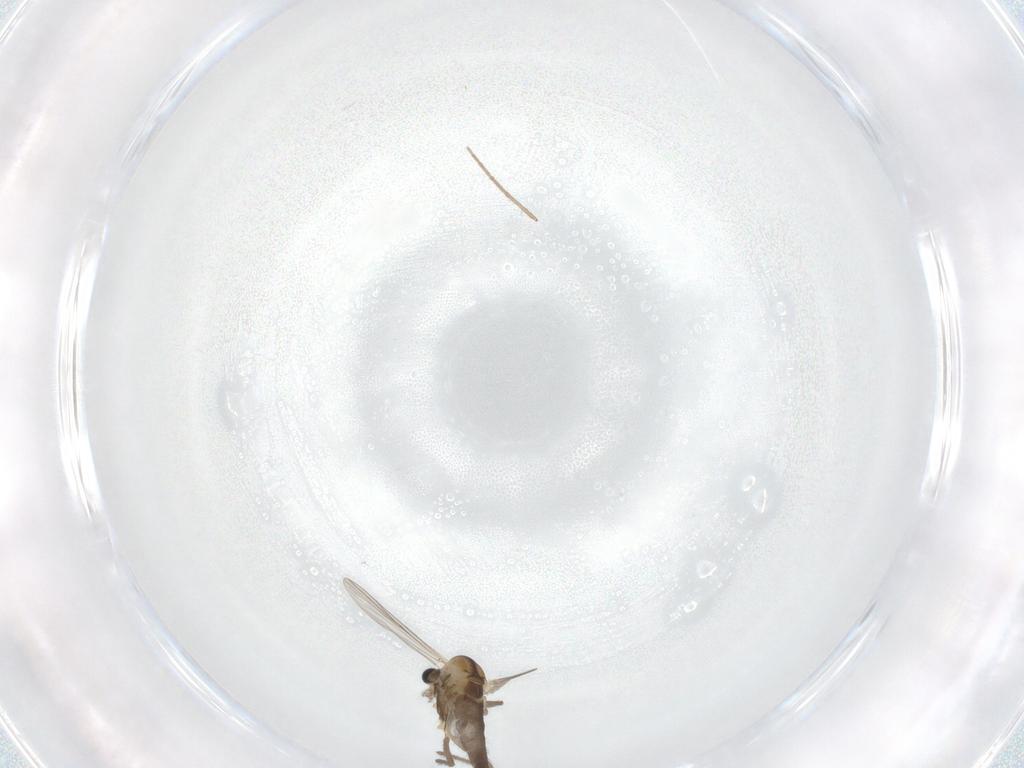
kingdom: Animalia
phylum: Arthropoda
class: Insecta
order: Diptera
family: Chironomidae
